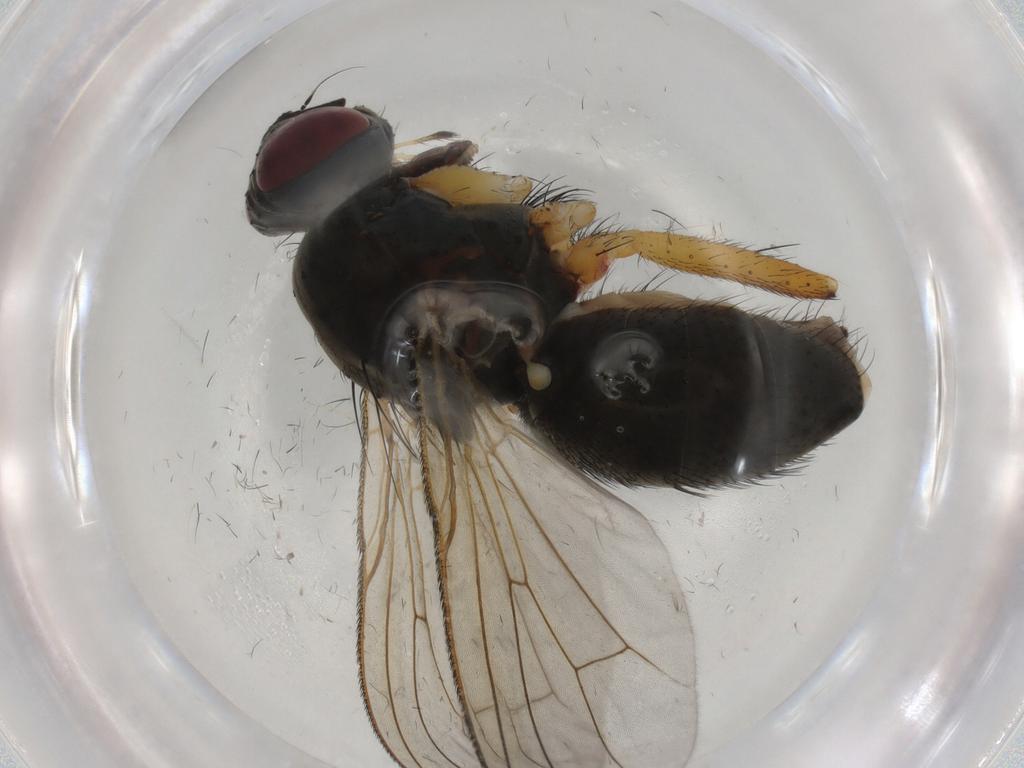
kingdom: Animalia
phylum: Arthropoda
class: Insecta
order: Diptera
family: Muscidae
